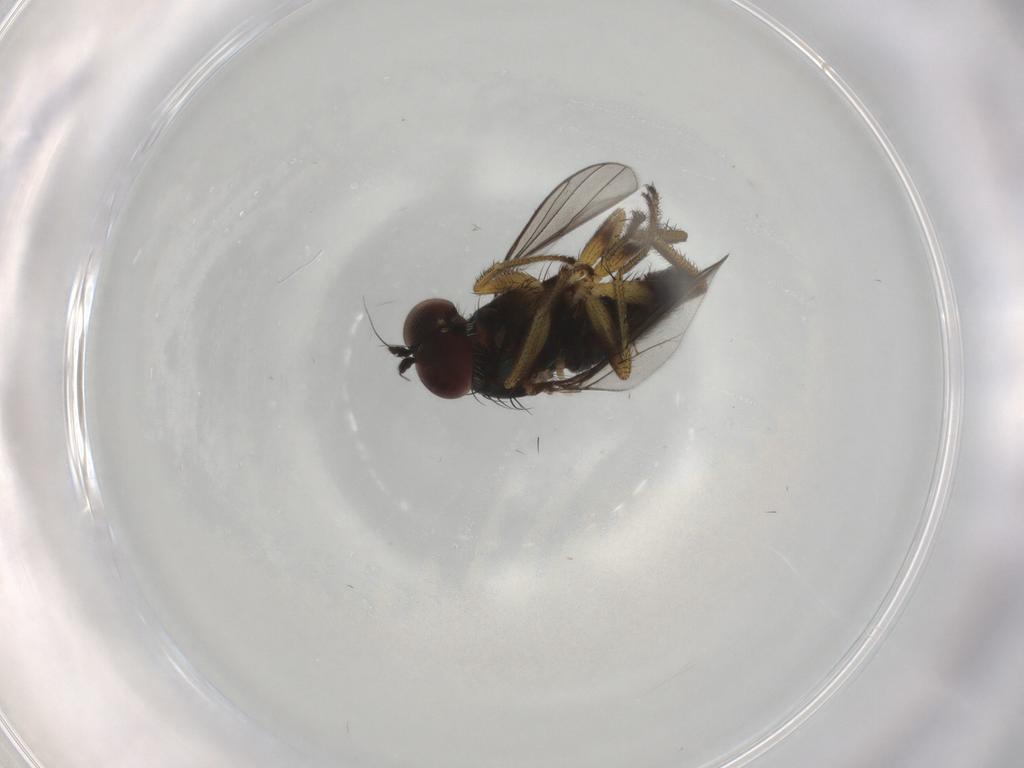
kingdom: Animalia
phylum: Arthropoda
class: Insecta
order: Diptera
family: Dolichopodidae
